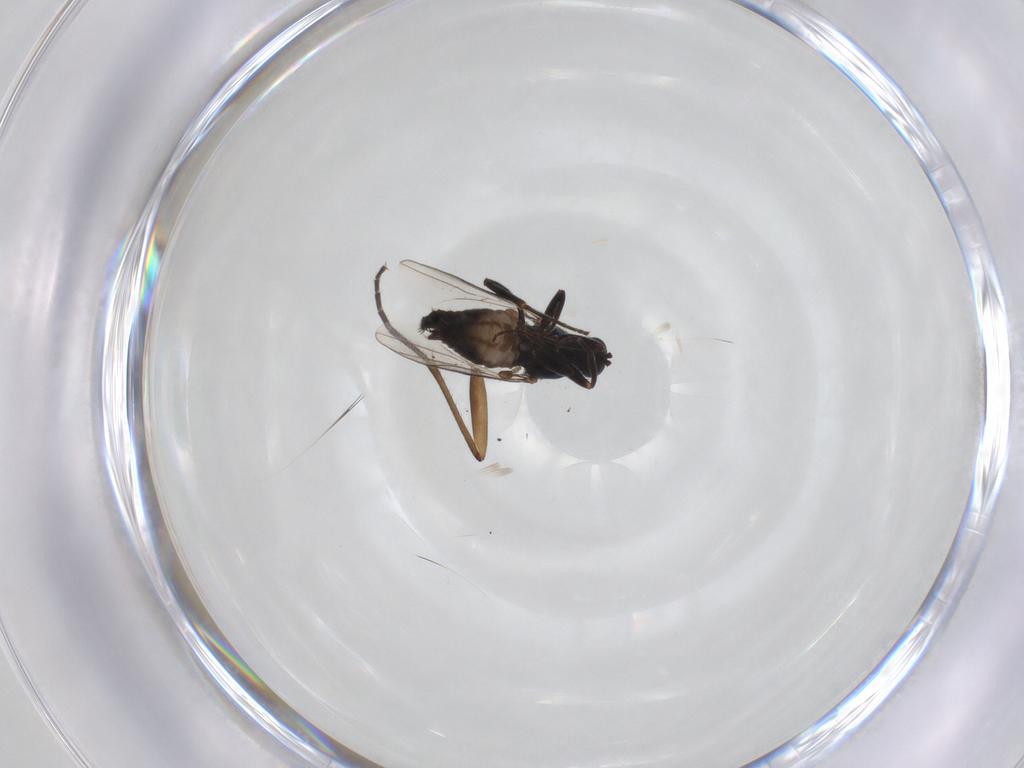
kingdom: Animalia
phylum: Arthropoda
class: Insecta
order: Diptera
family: Hybotidae
